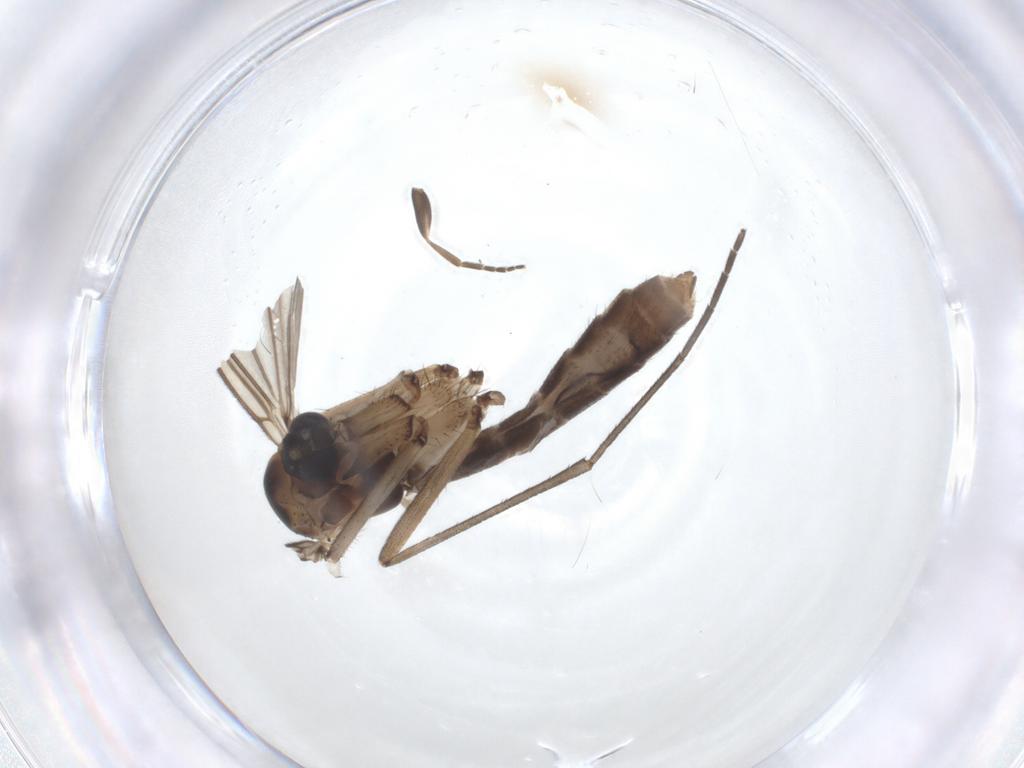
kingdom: Animalia
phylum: Arthropoda
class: Insecta
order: Diptera
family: Mycetophilidae
